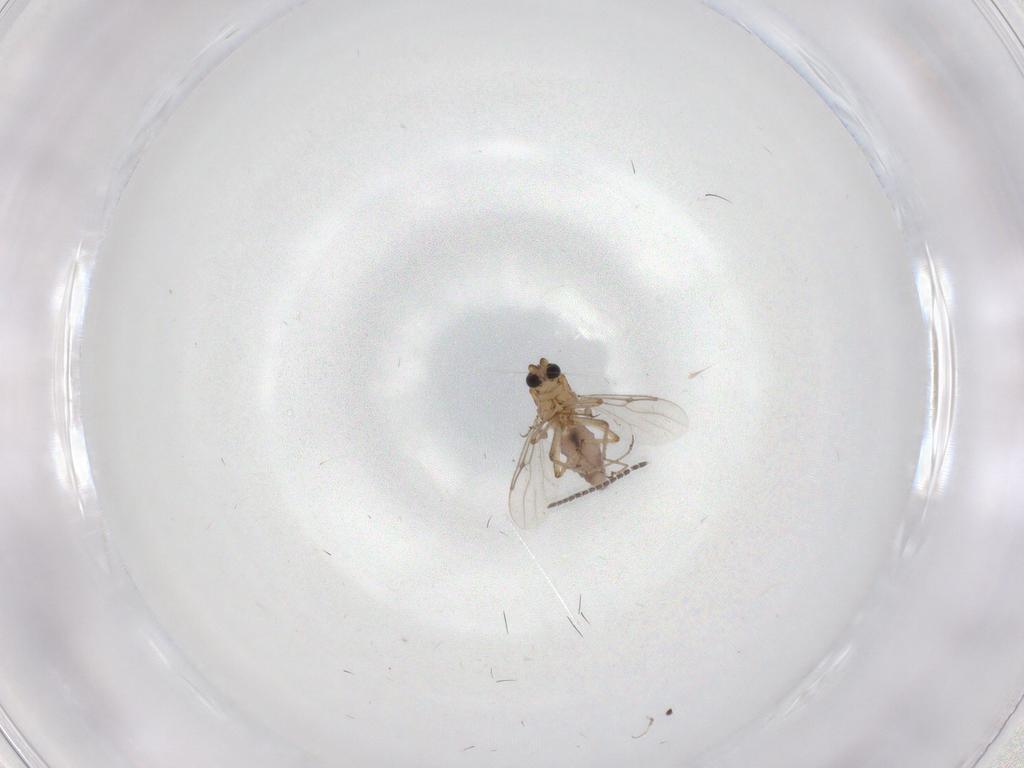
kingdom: Animalia
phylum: Arthropoda
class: Insecta
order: Diptera
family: Sciaridae
